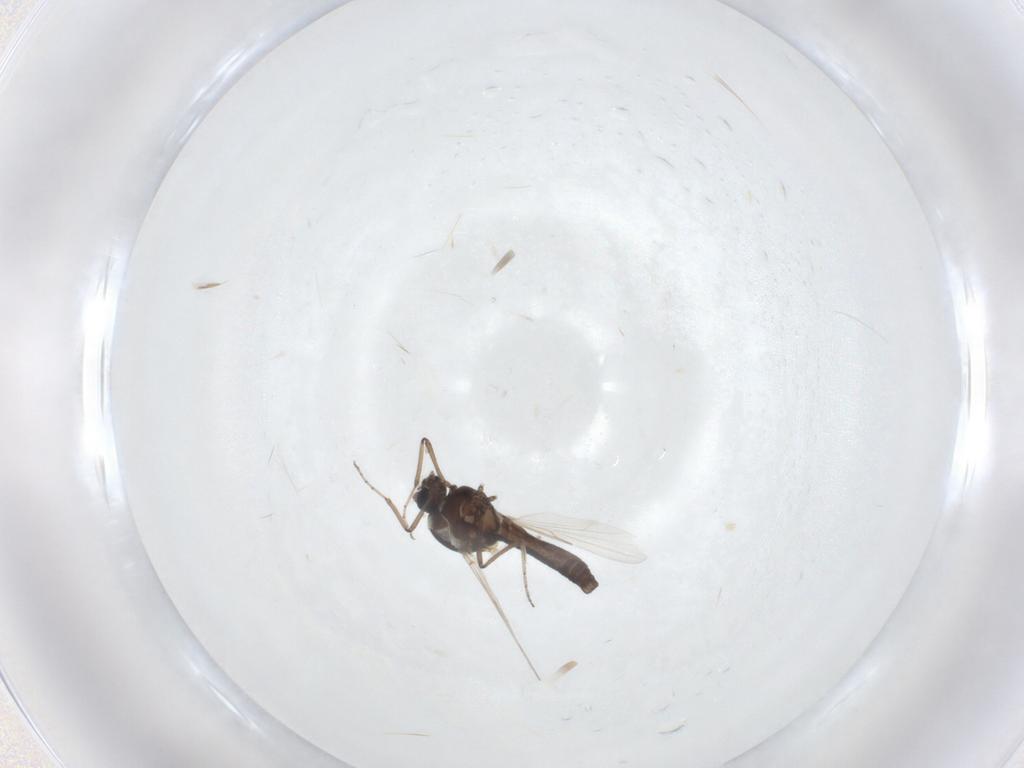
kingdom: Animalia
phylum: Arthropoda
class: Insecta
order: Diptera
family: Ceratopogonidae
